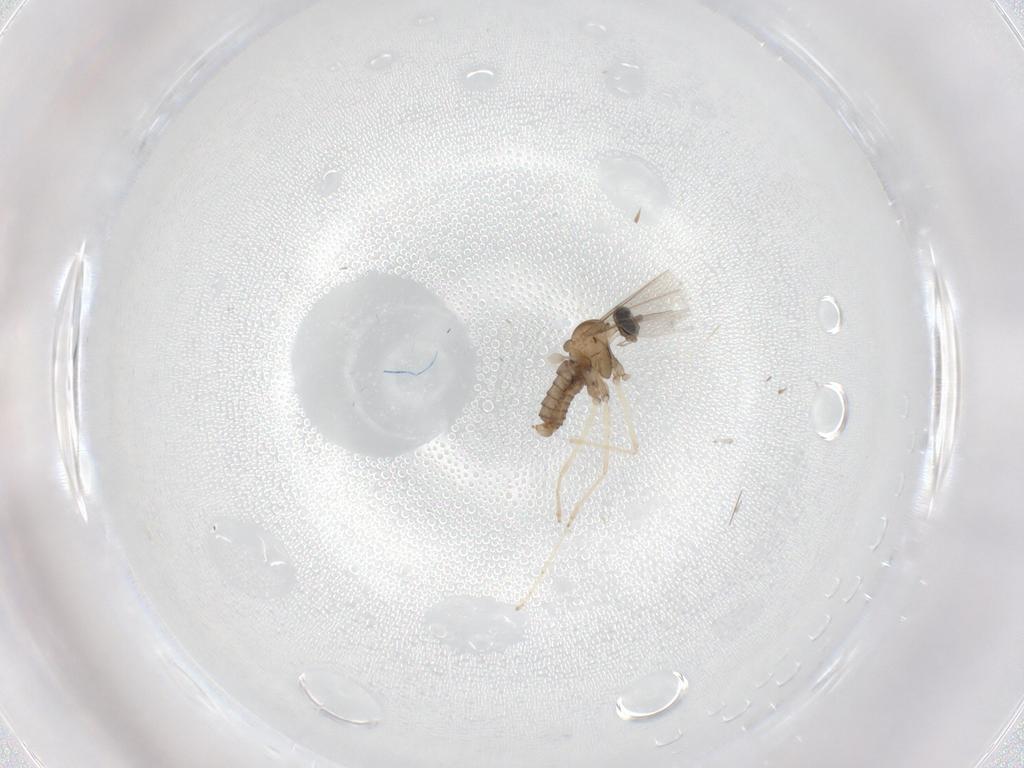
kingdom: Animalia
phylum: Arthropoda
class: Insecta
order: Diptera
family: Cecidomyiidae
